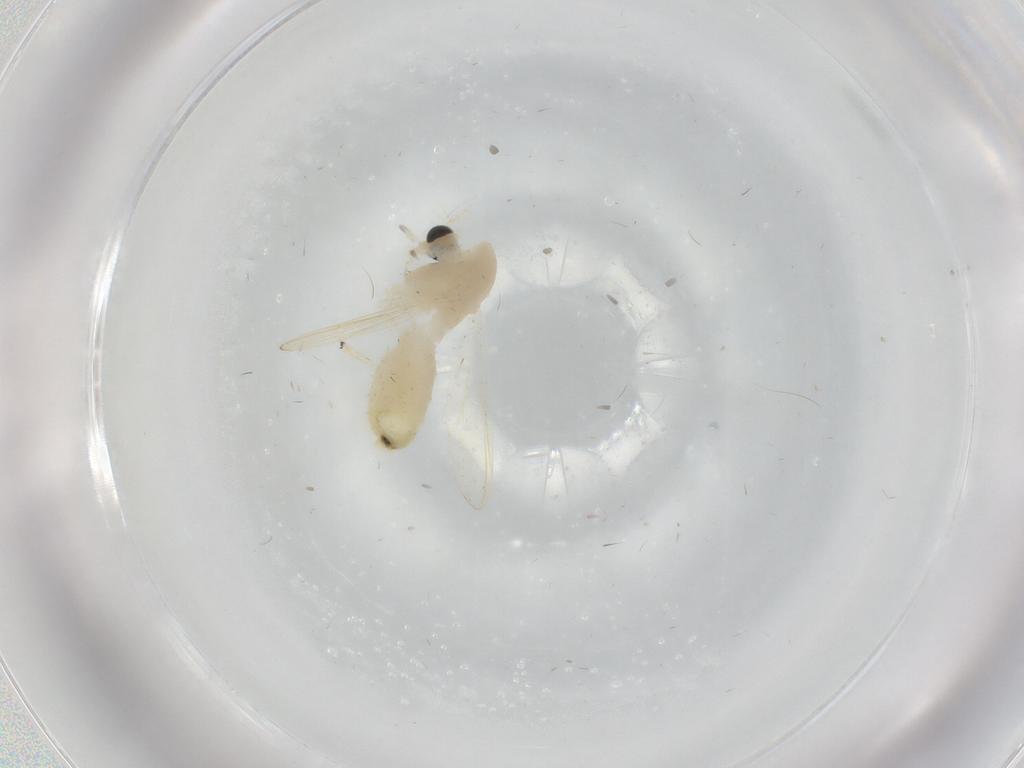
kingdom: Animalia
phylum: Arthropoda
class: Insecta
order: Diptera
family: Chironomidae
